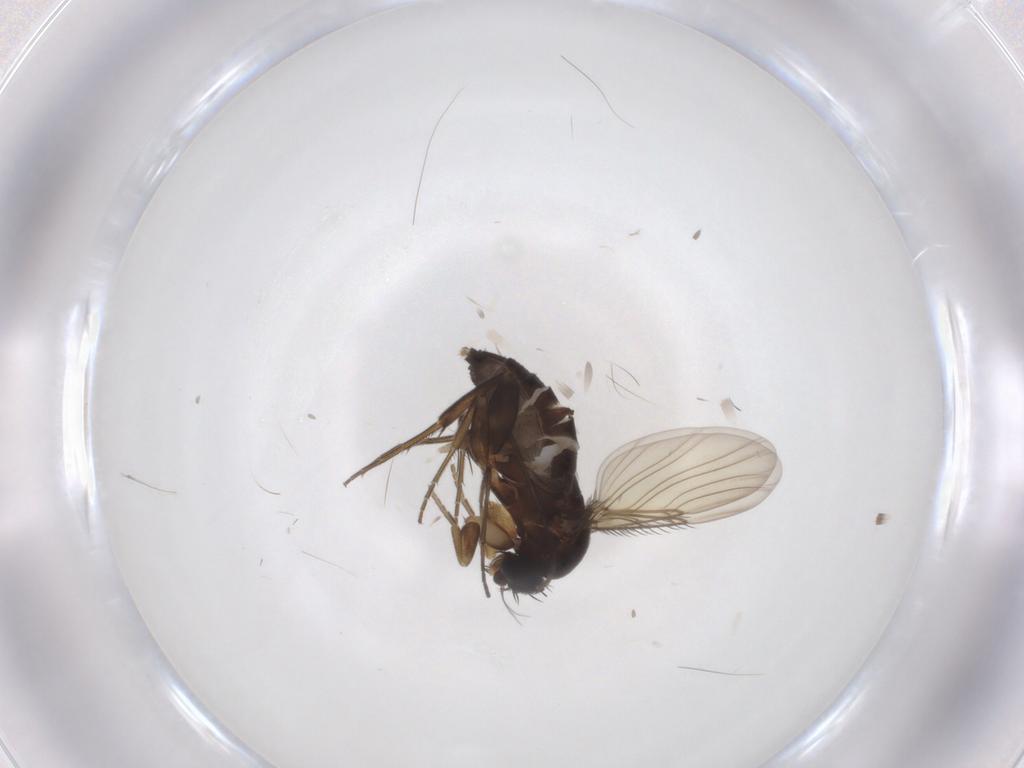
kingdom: Animalia
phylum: Arthropoda
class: Insecta
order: Diptera
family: Phoridae
